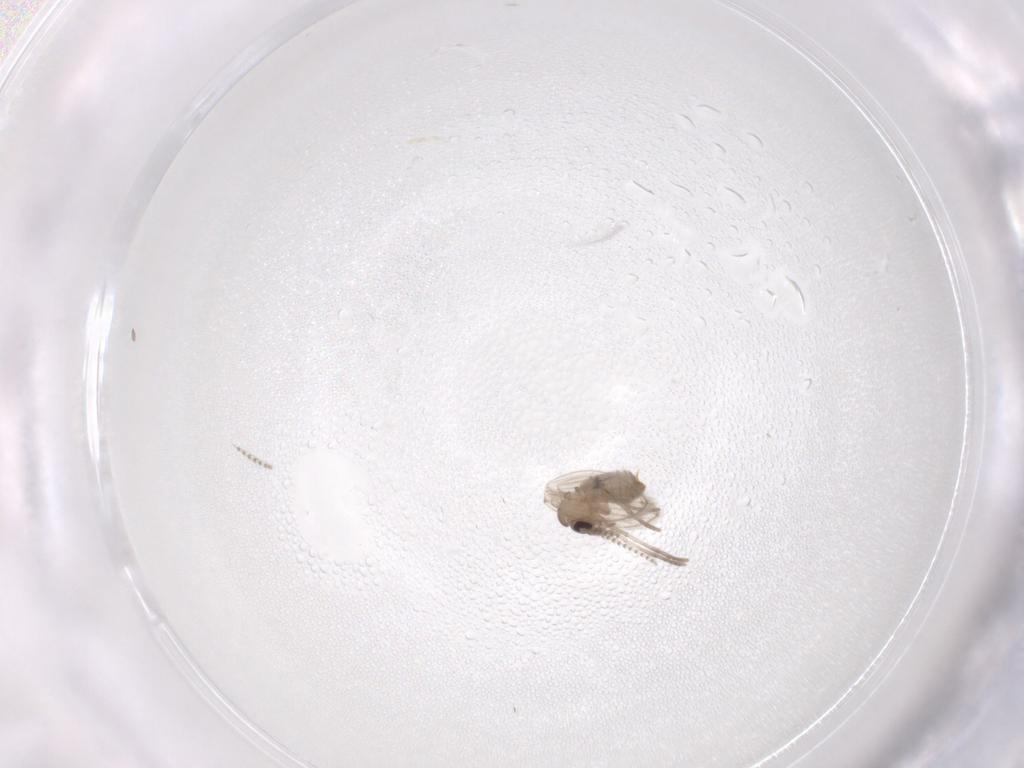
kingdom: Animalia
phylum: Arthropoda
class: Insecta
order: Diptera
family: Psychodidae
